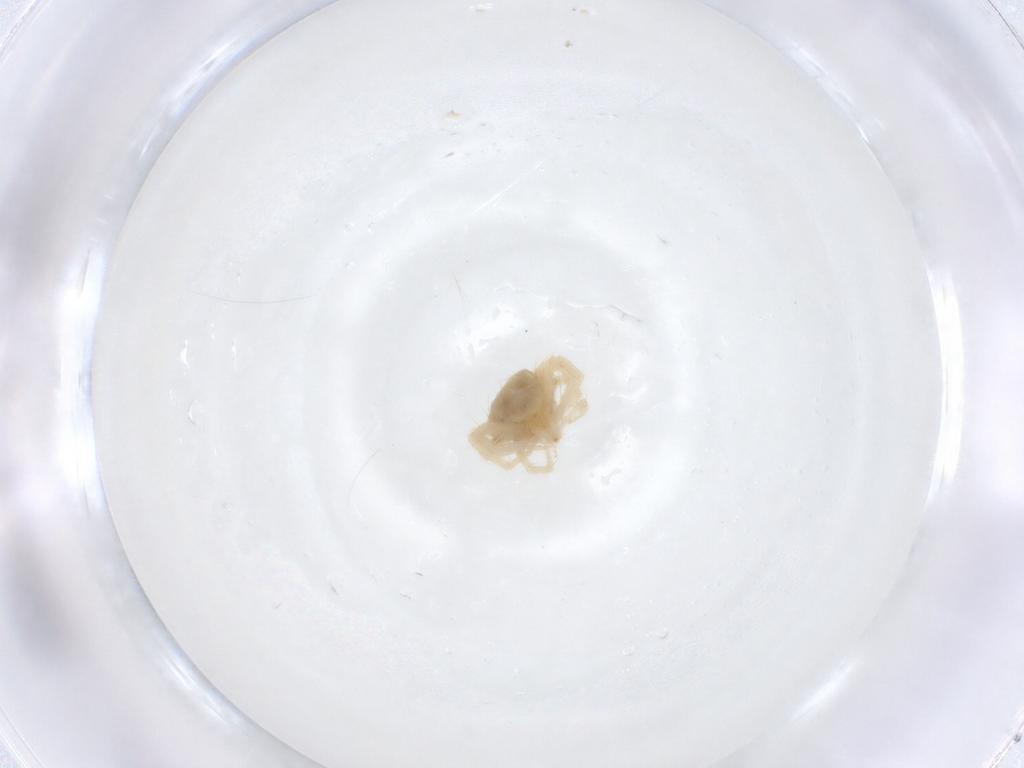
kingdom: Animalia
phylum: Arthropoda
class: Arachnida
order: Trombidiformes
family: Anystidae
